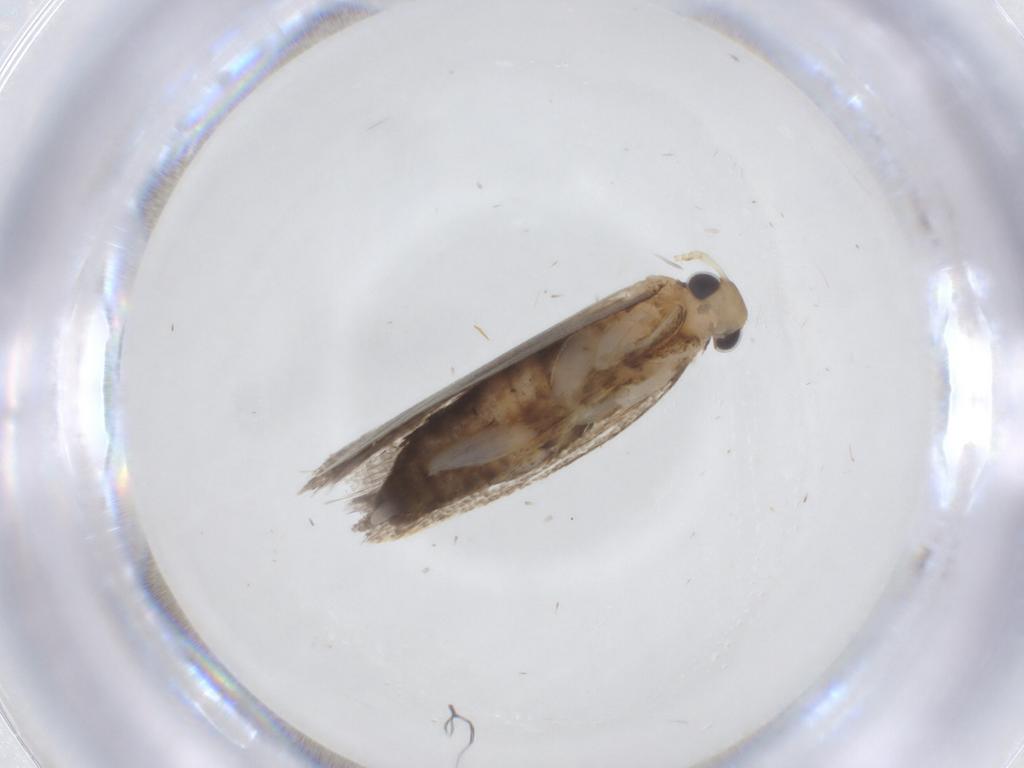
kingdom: Animalia
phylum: Arthropoda
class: Insecta
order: Lepidoptera
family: Lecithoceridae
